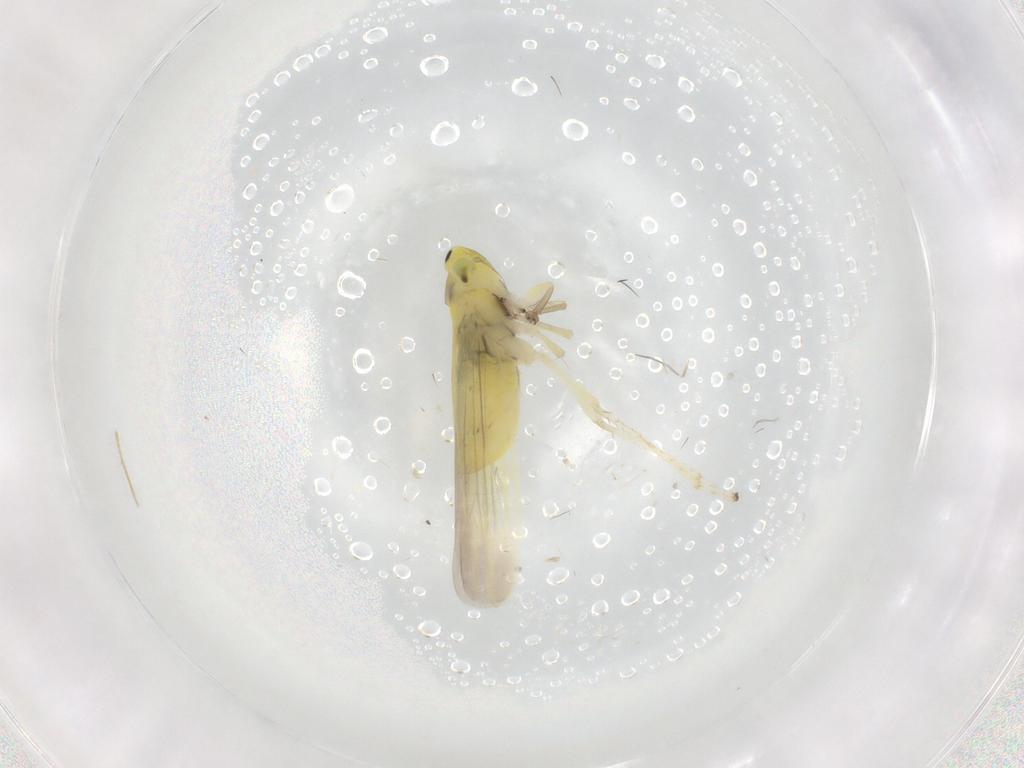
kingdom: Animalia
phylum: Arthropoda
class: Insecta
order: Hemiptera
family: Cicadellidae
